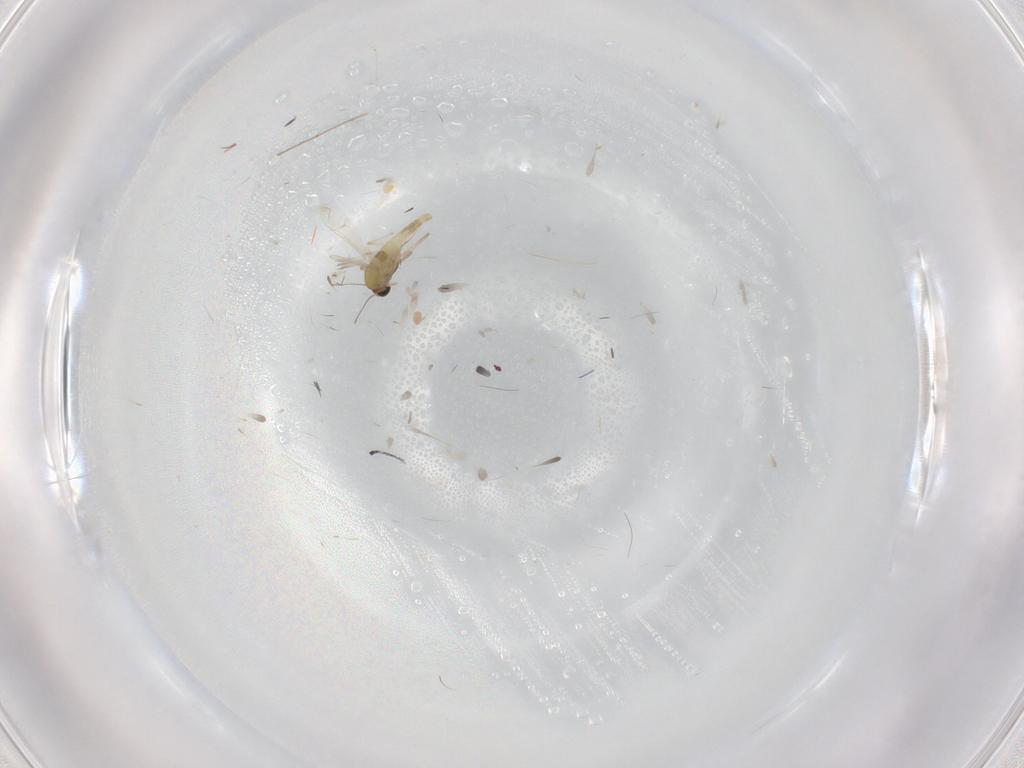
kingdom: Animalia
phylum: Arthropoda
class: Insecta
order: Diptera
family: Chironomidae
